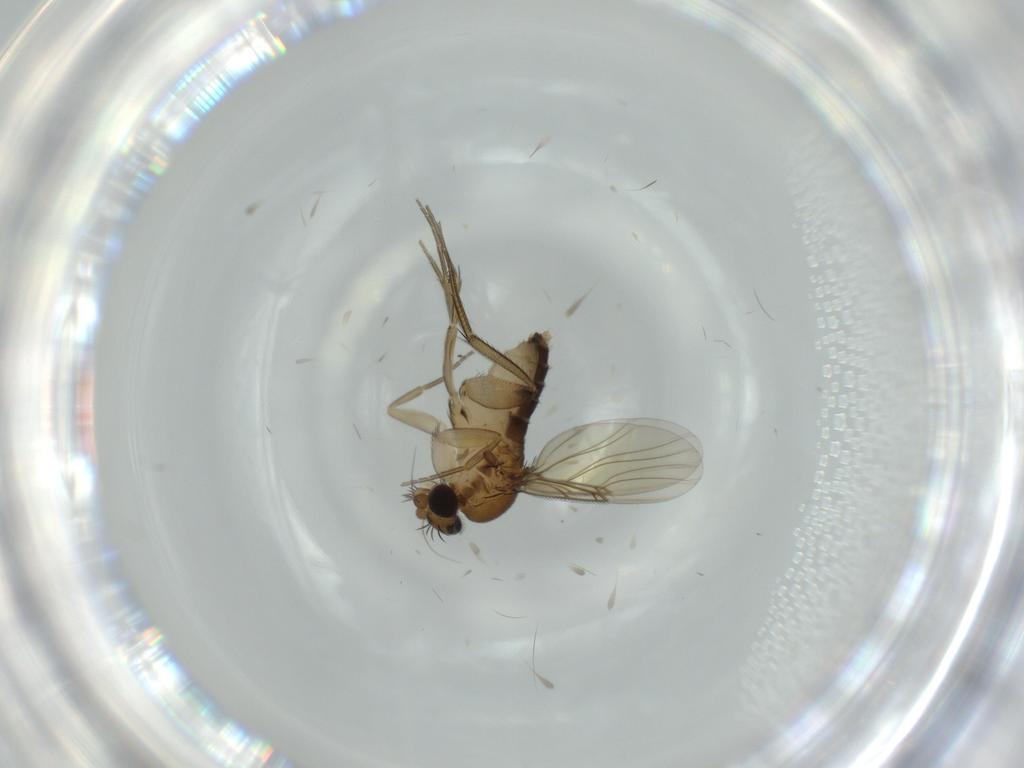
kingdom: Animalia
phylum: Arthropoda
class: Insecta
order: Diptera
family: Phoridae
